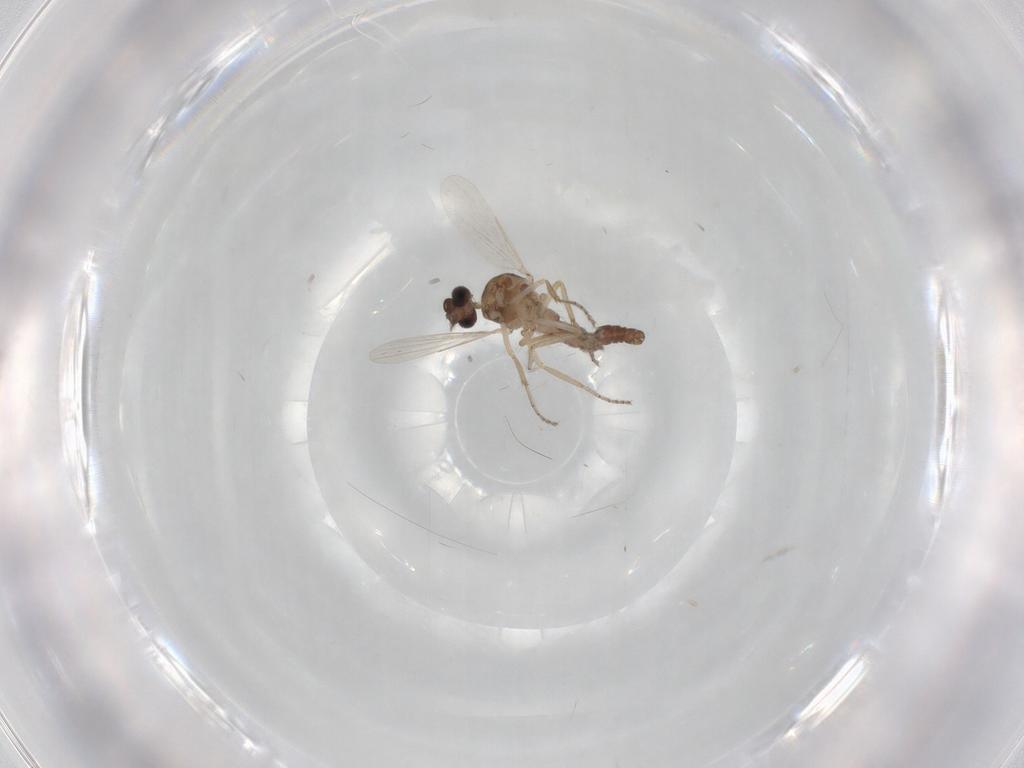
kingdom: Animalia
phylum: Arthropoda
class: Insecta
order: Diptera
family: Ceratopogonidae
